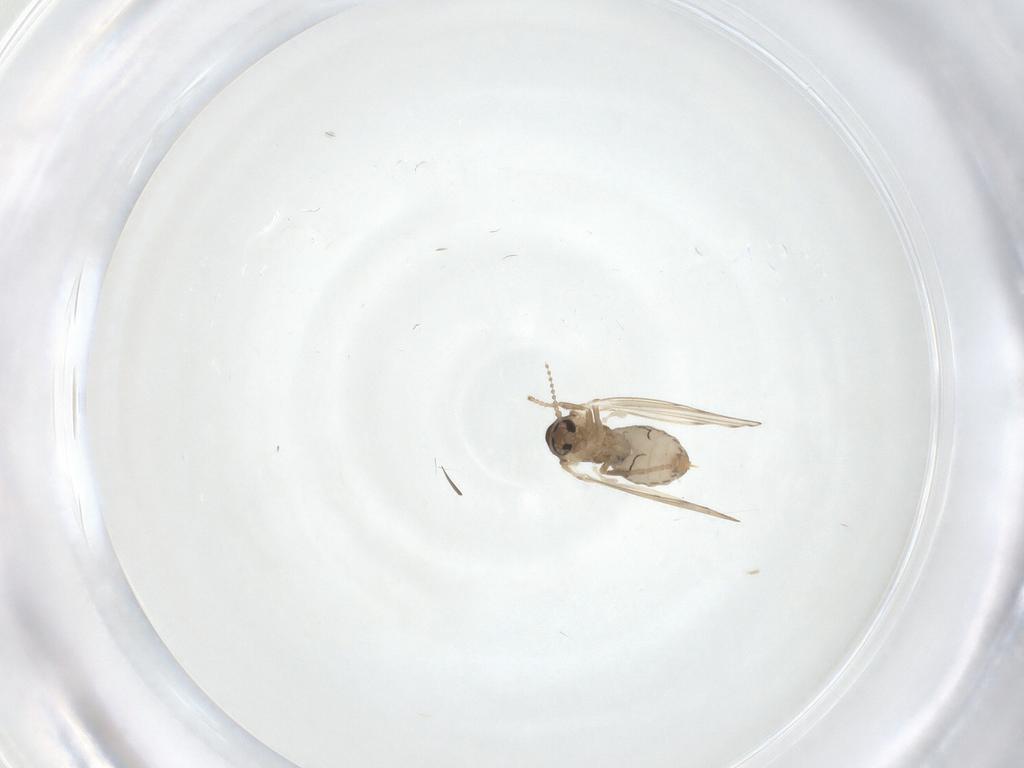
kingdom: Animalia
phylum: Arthropoda
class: Insecta
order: Diptera
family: Psychodidae
